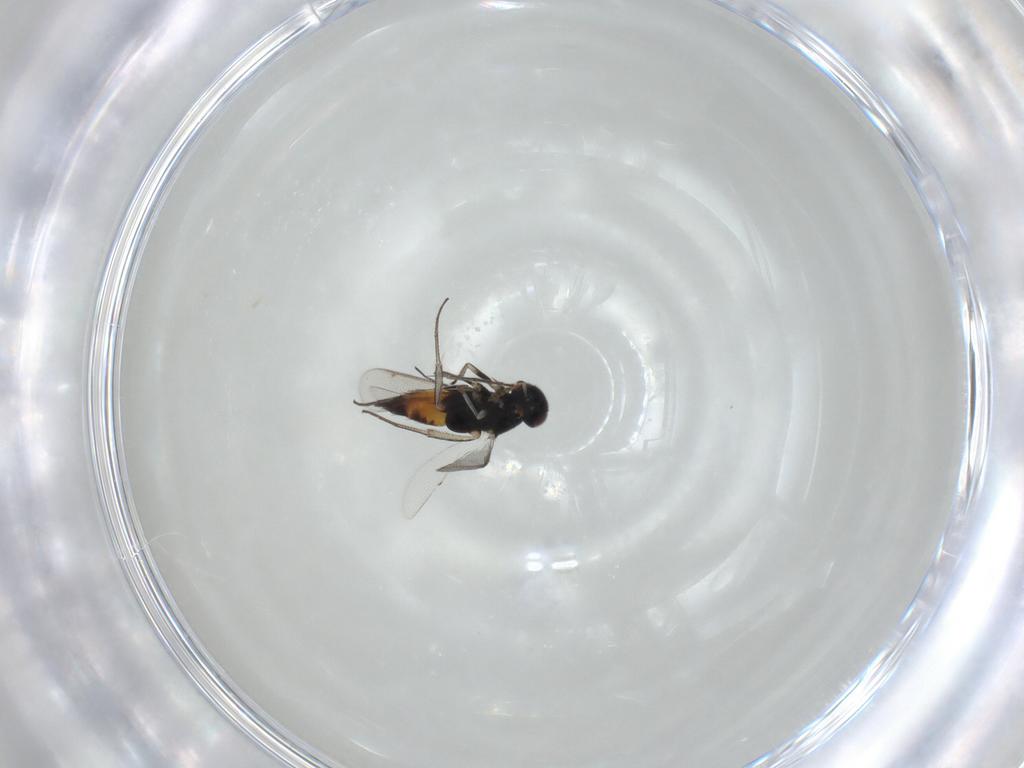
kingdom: Animalia
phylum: Arthropoda
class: Insecta
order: Hymenoptera
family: Eulophidae
